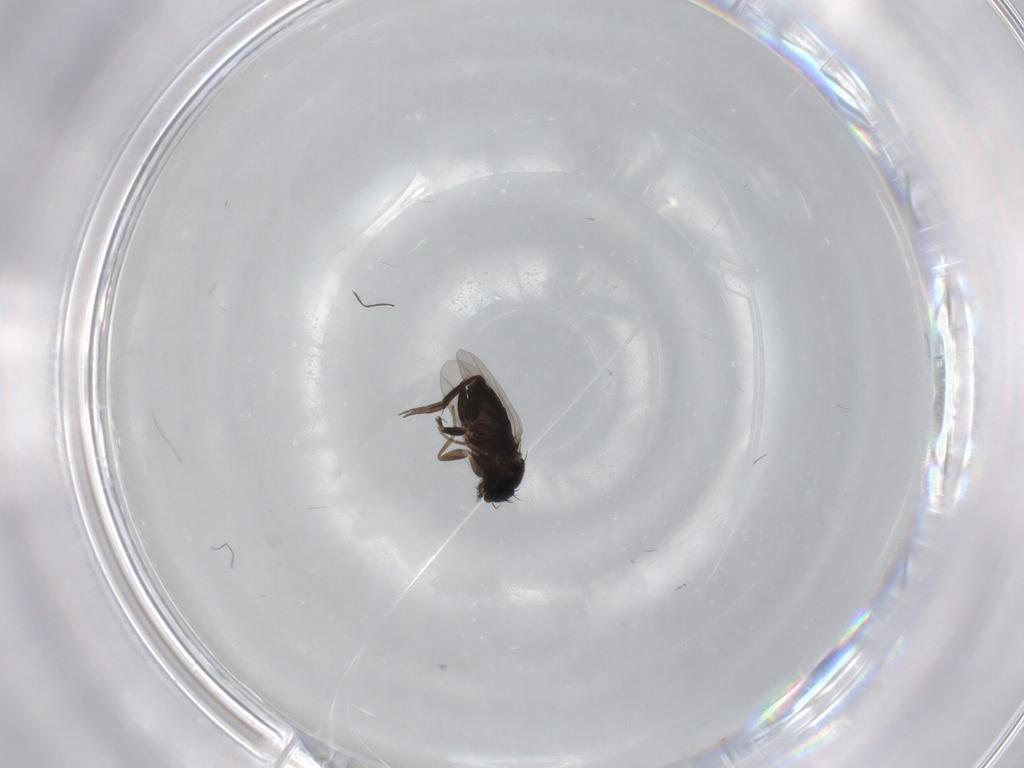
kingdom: Animalia
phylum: Arthropoda
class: Insecta
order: Diptera
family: Phoridae
